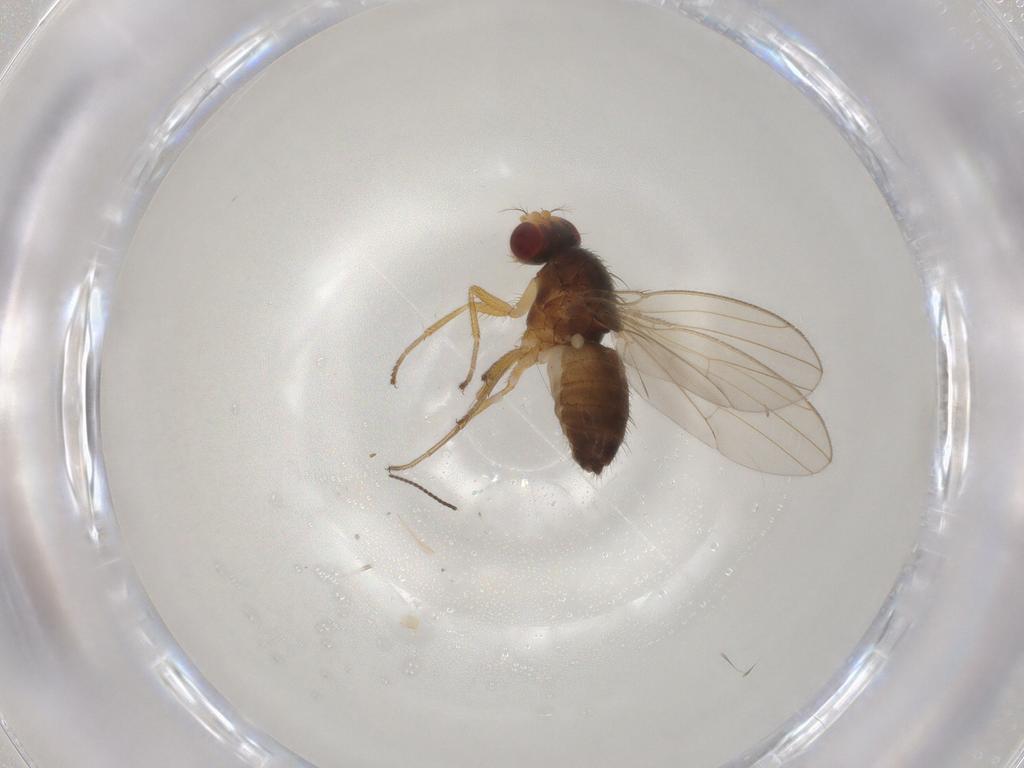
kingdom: Animalia
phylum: Arthropoda
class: Insecta
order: Diptera
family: Drosophilidae
